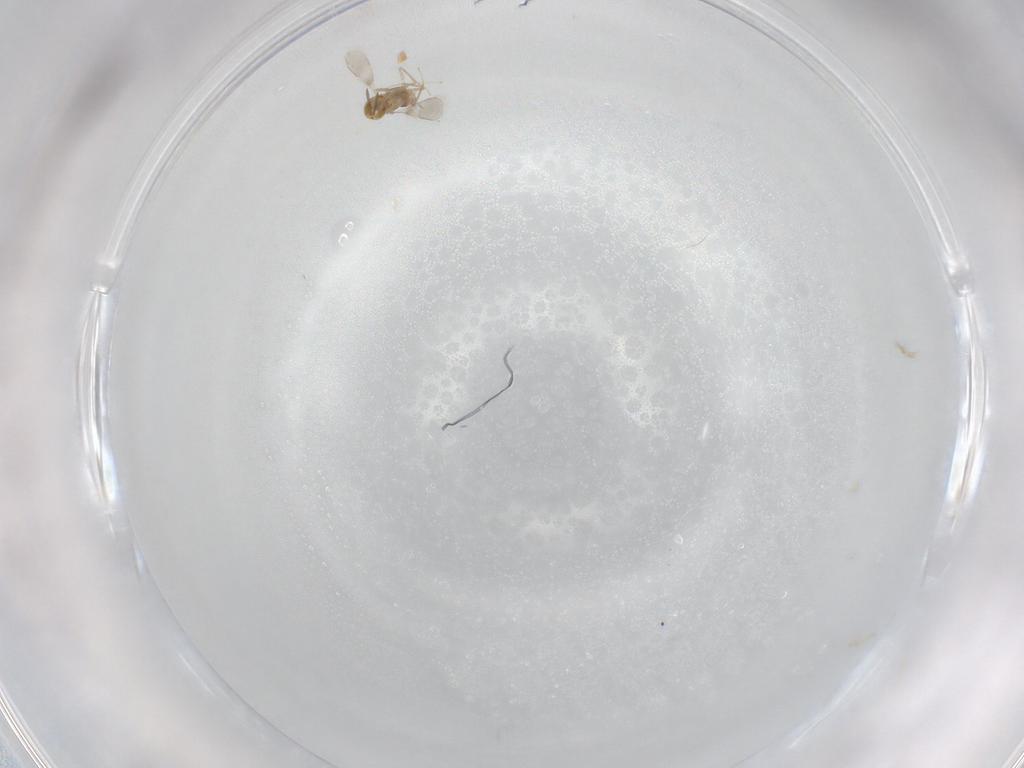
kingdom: Animalia
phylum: Arthropoda
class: Insecta
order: Hymenoptera
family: Aphelinidae
